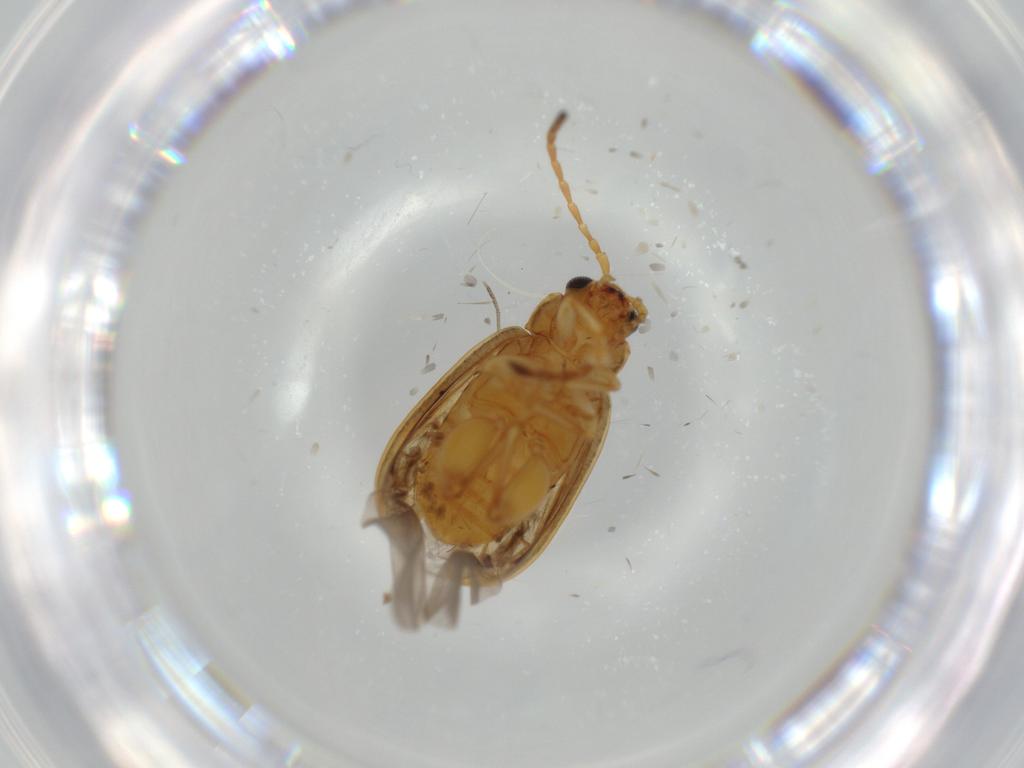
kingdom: Animalia
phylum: Arthropoda
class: Insecta
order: Coleoptera
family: Chrysomelidae
